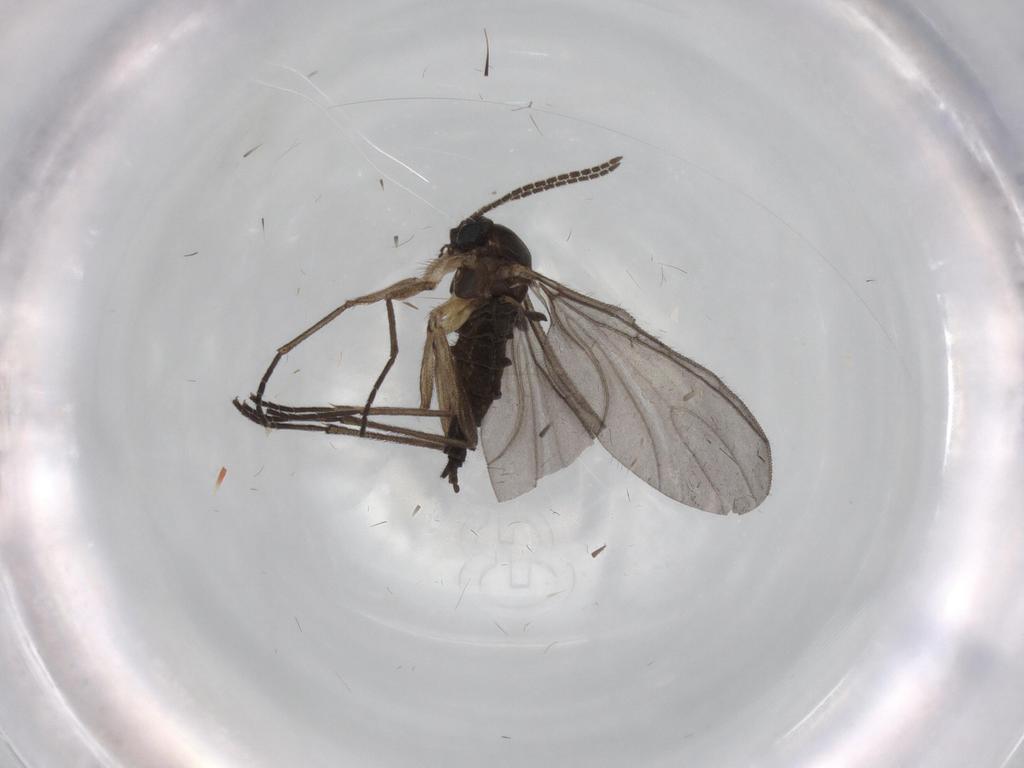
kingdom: Animalia
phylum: Arthropoda
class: Insecta
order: Diptera
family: Sciaridae
